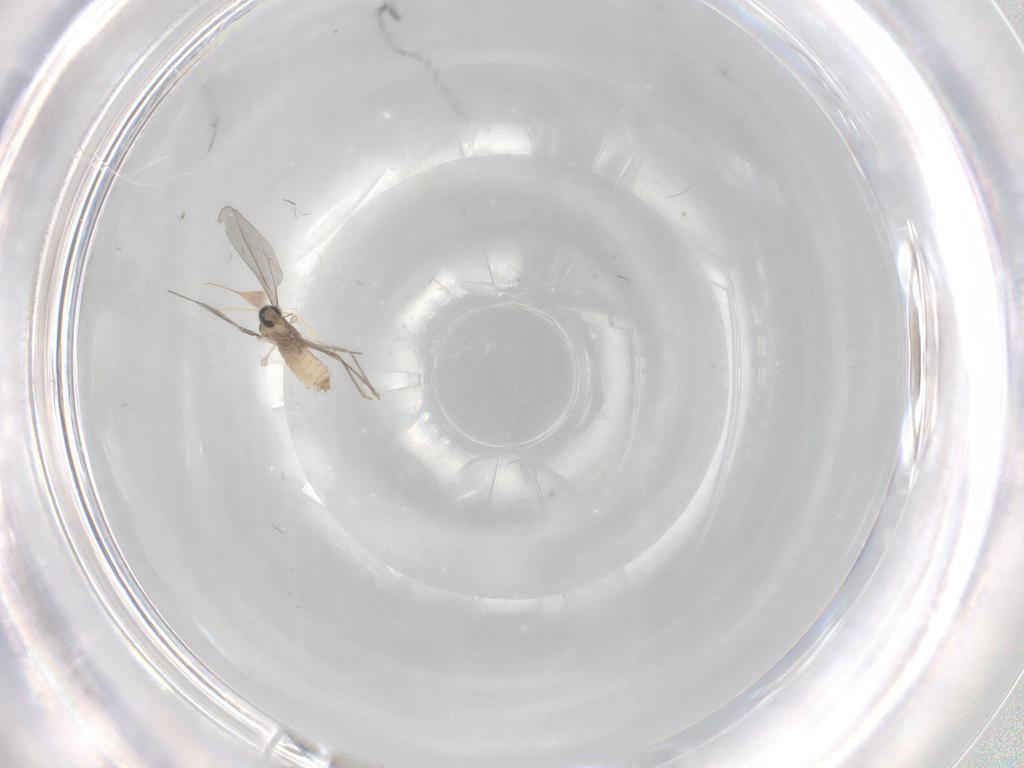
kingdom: Animalia
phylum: Arthropoda
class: Insecta
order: Diptera
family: Cecidomyiidae
